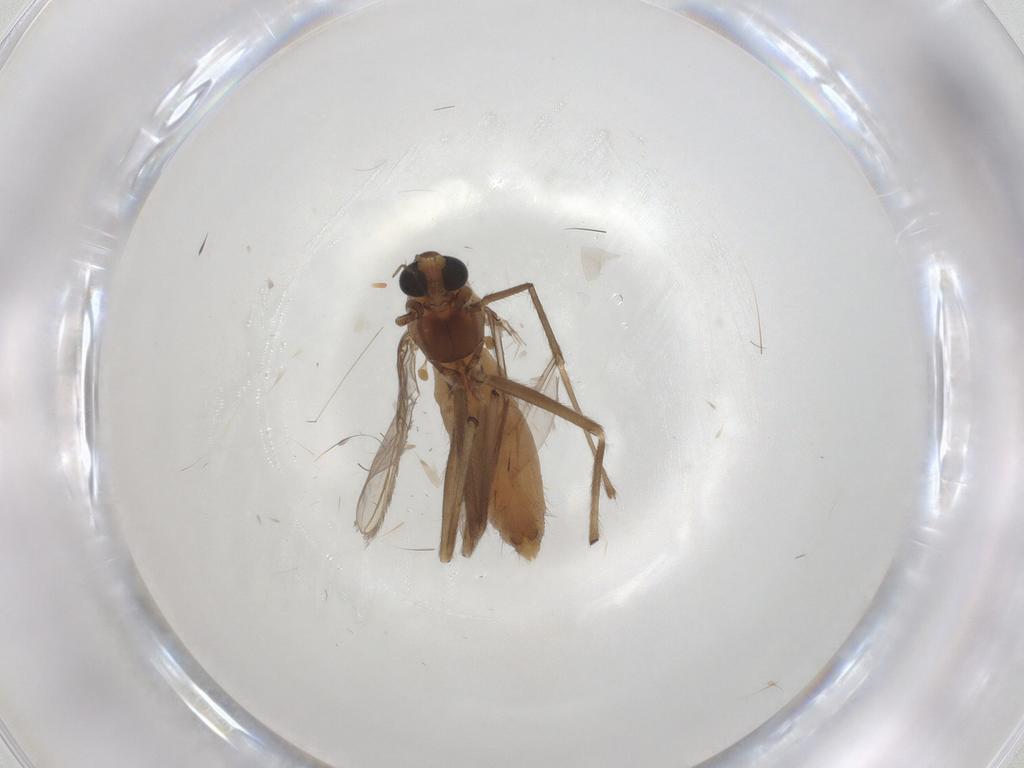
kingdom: Animalia
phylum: Arthropoda
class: Insecta
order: Diptera
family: Chironomidae
